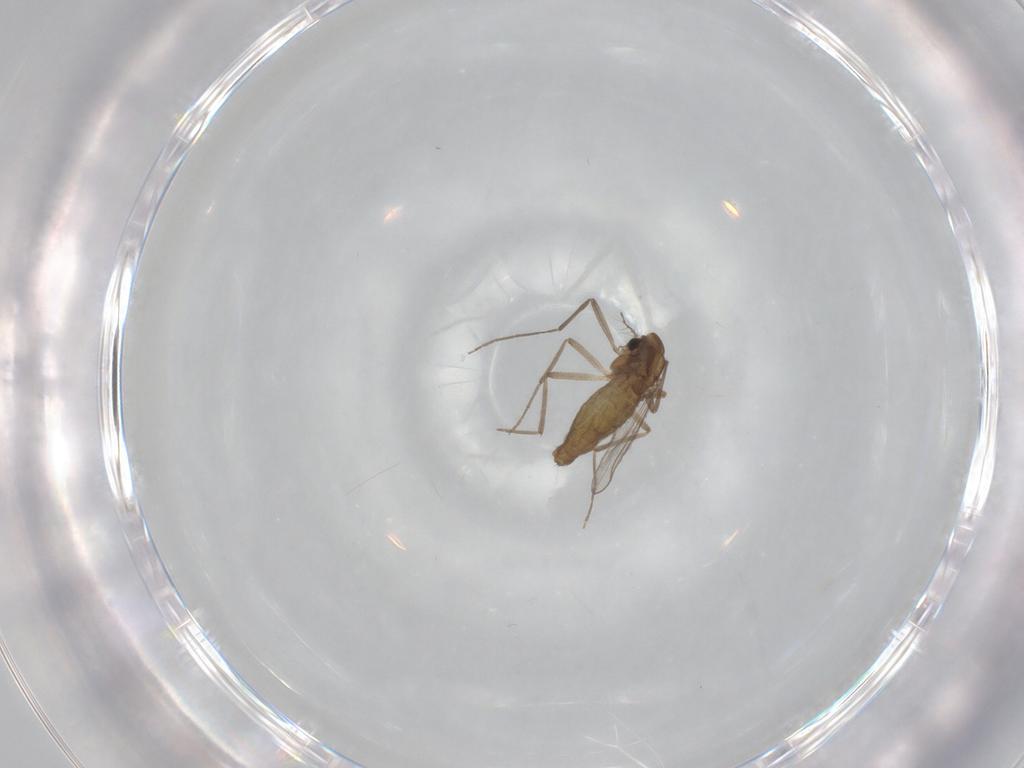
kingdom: Animalia
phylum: Arthropoda
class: Insecta
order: Diptera
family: Chironomidae
